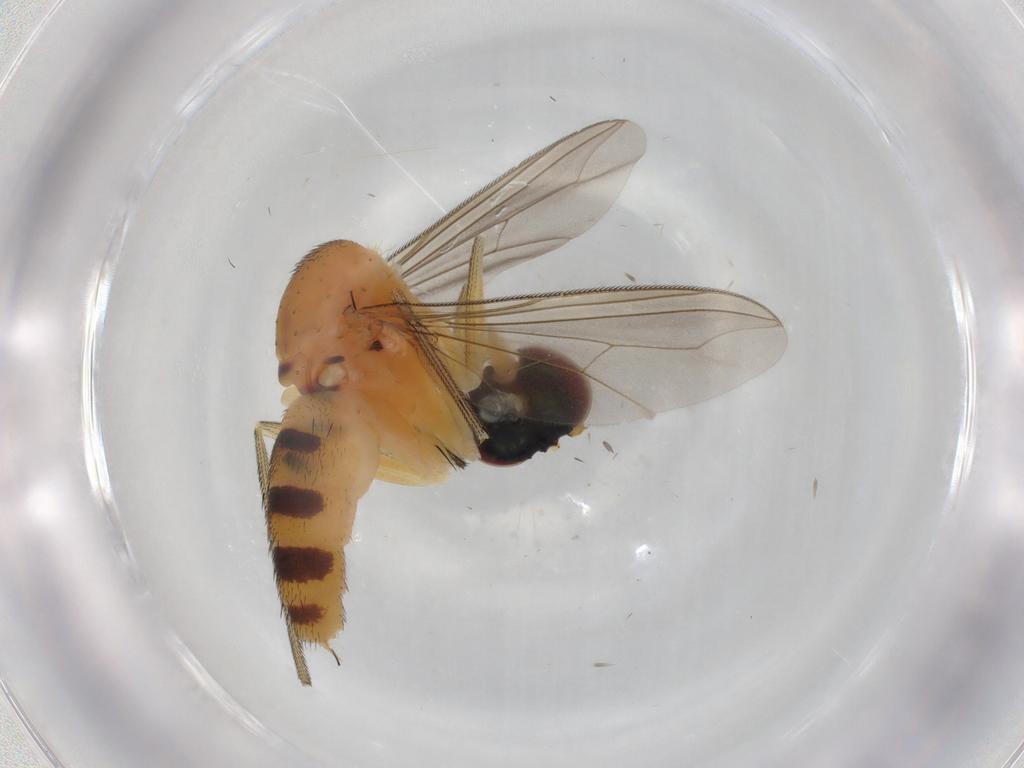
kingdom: Animalia
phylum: Arthropoda
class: Insecta
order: Diptera
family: Dolichopodidae
